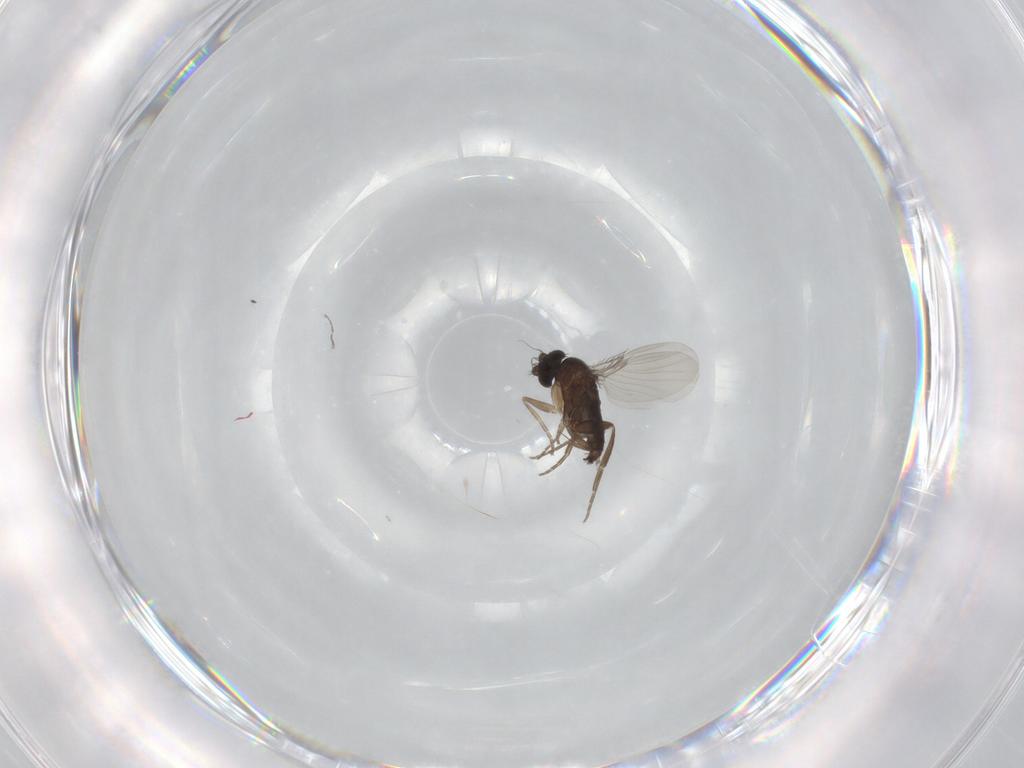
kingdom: Animalia
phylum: Arthropoda
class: Insecta
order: Diptera
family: Phoridae
